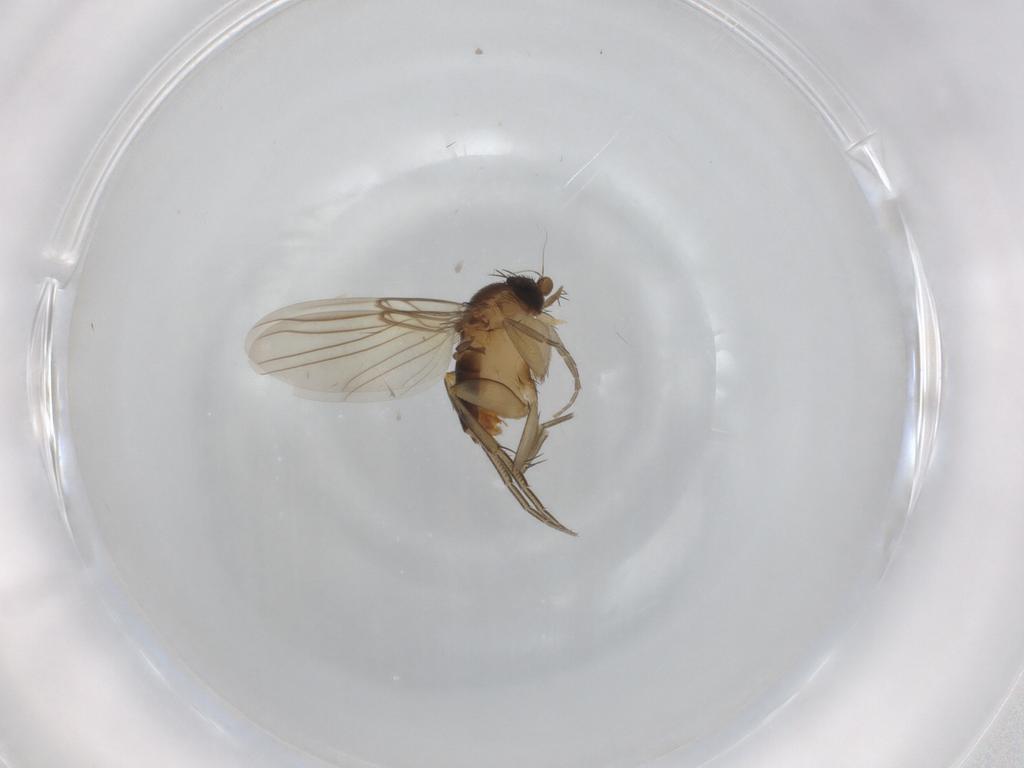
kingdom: Animalia
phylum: Arthropoda
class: Insecta
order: Diptera
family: Phoridae
